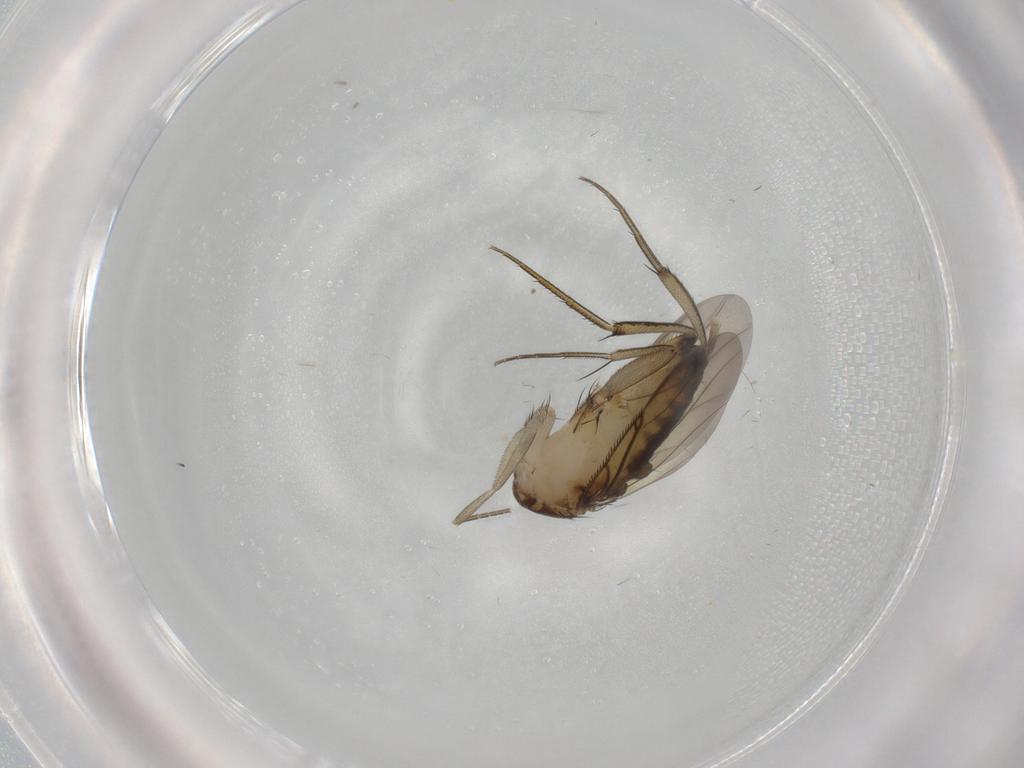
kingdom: Animalia
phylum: Arthropoda
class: Insecta
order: Diptera
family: Phoridae
